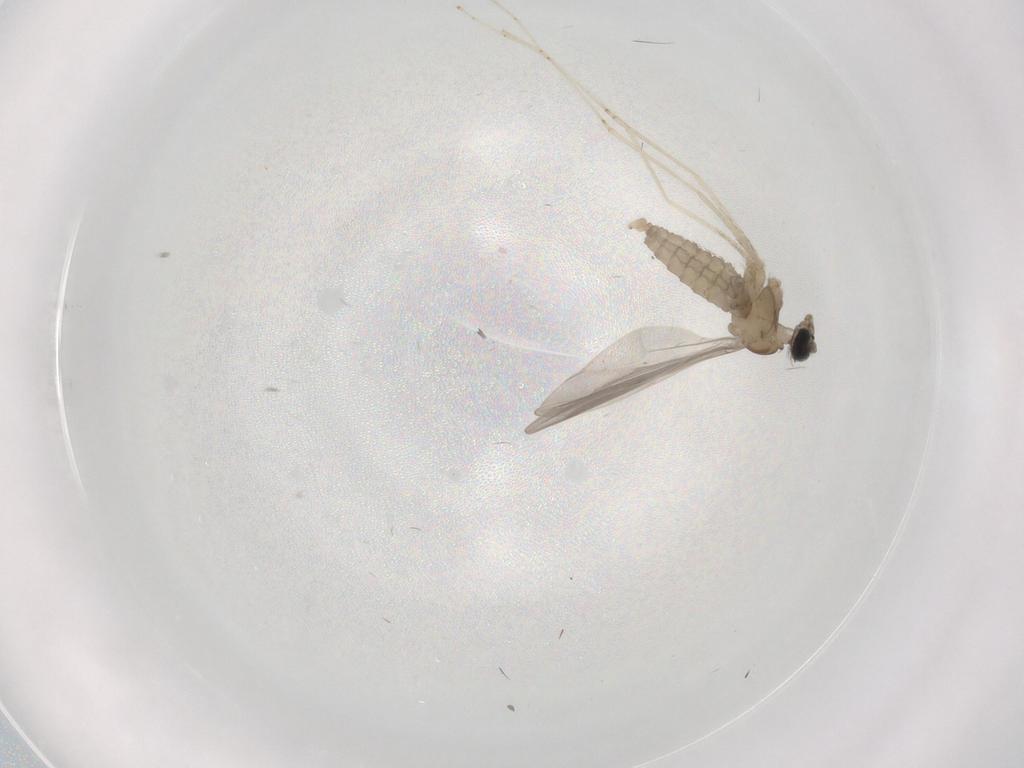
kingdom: Animalia
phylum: Arthropoda
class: Insecta
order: Diptera
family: Cecidomyiidae
